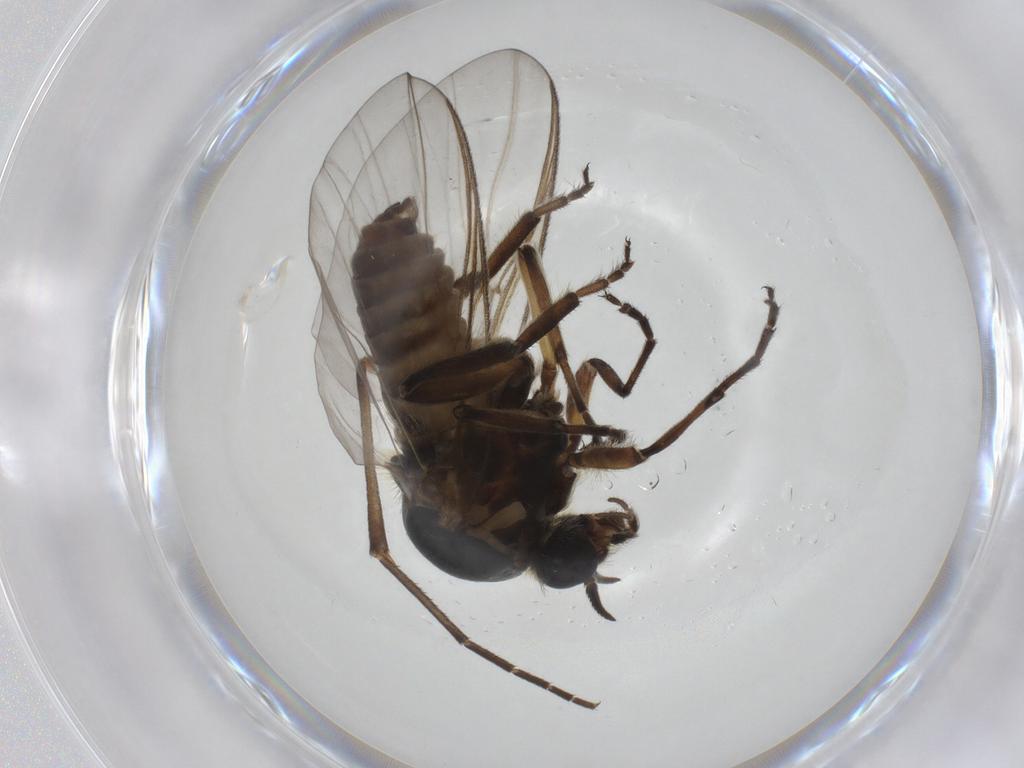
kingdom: Animalia
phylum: Arthropoda
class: Insecta
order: Diptera
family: Simuliidae
